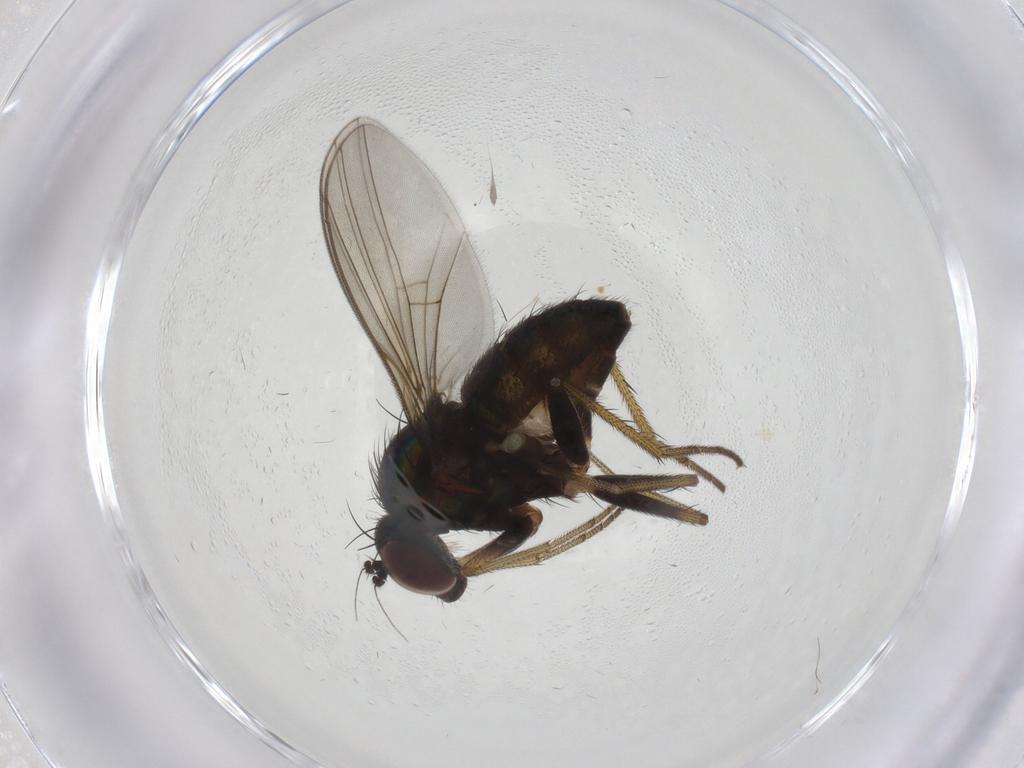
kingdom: Animalia
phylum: Arthropoda
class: Insecta
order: Diptera
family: Dolichopodidae
